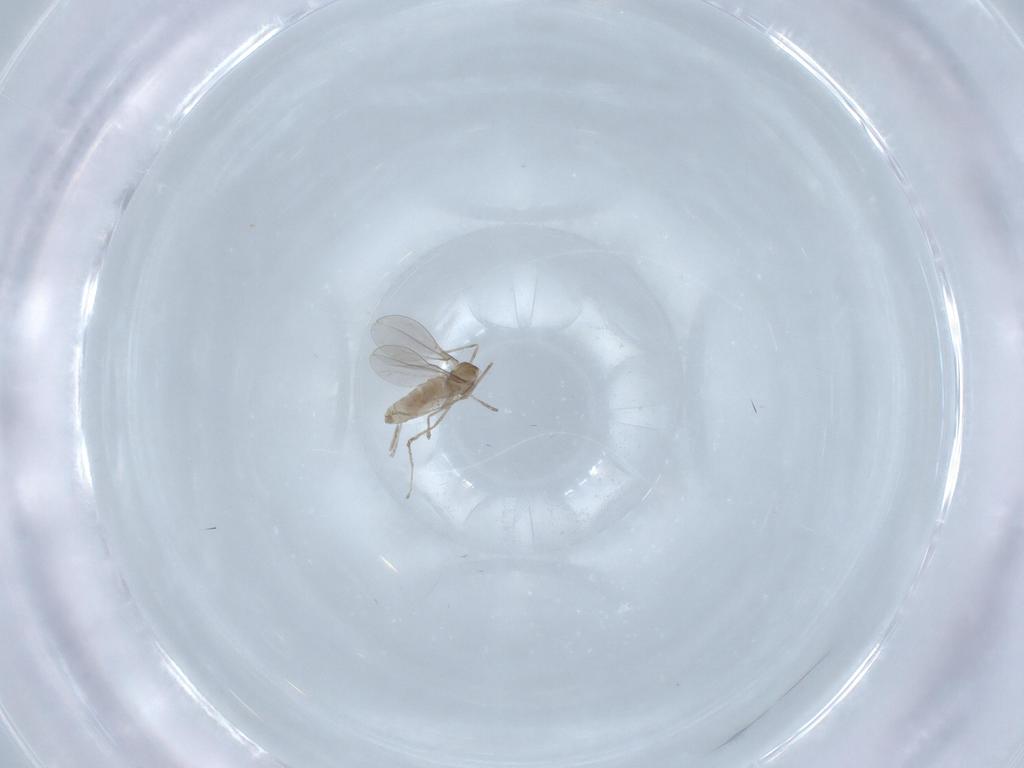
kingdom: Animalia
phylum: Arthropoda
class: Insecta
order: Diptera
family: Cecidomyiidae
